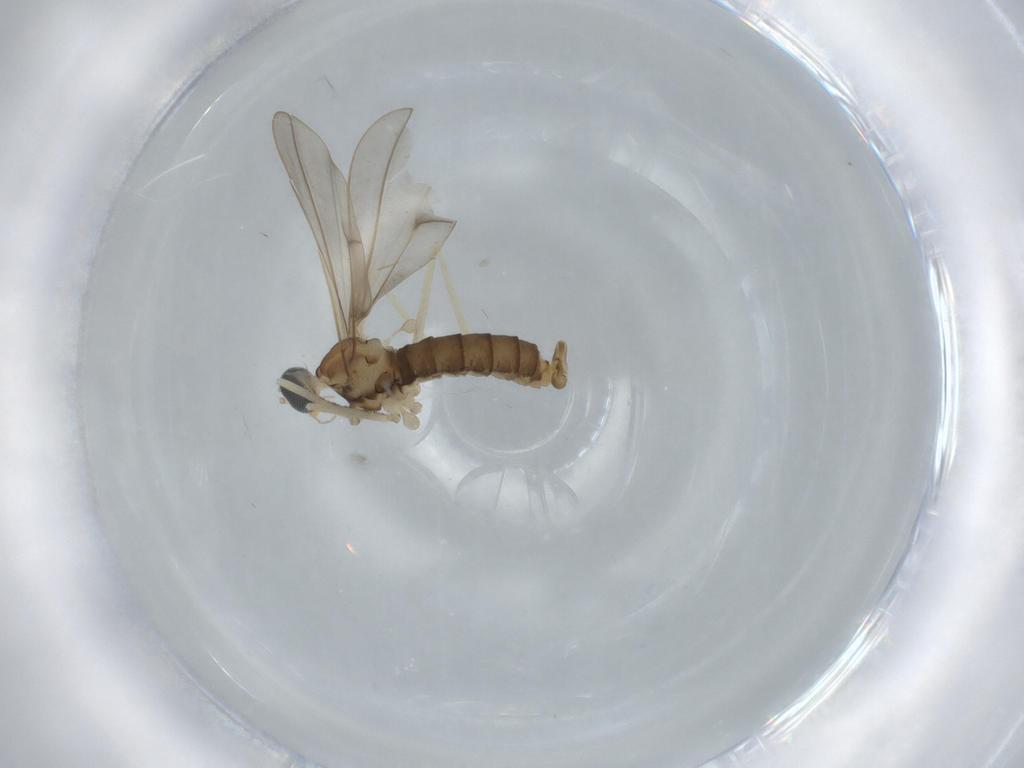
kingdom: Animalia
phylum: Arthropoda
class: Insecta
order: Diptera
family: Cecidomyiidae
